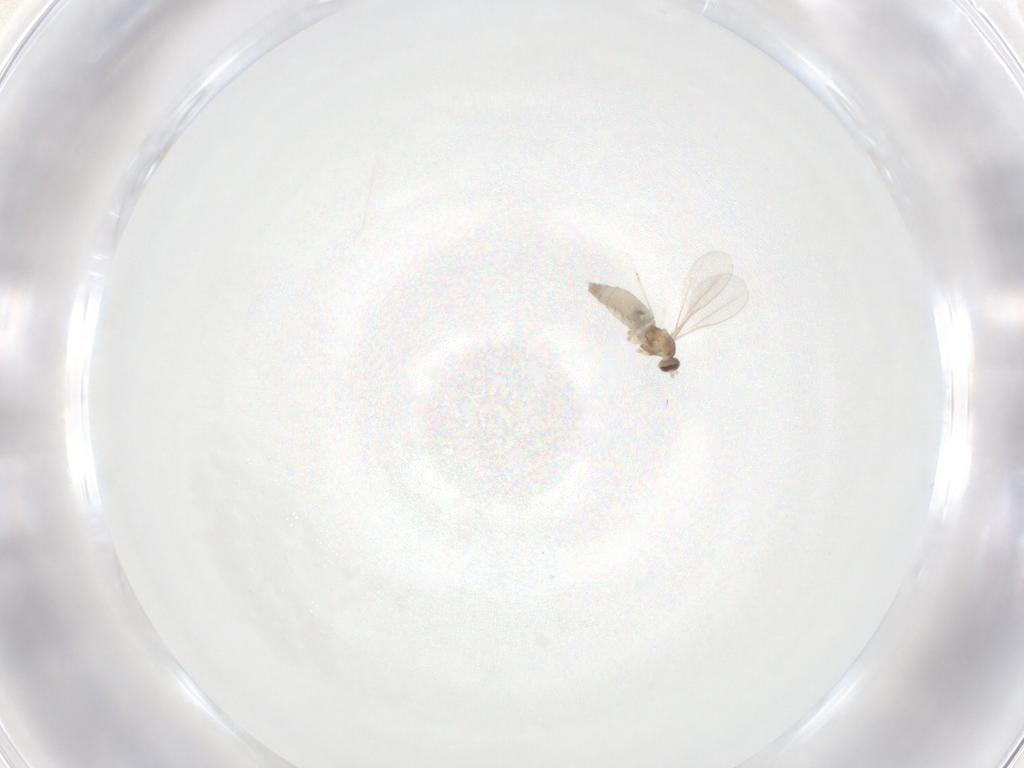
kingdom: Animalia
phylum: Arthropoda
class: Insecta
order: Diptera
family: Cecidomyiidae
